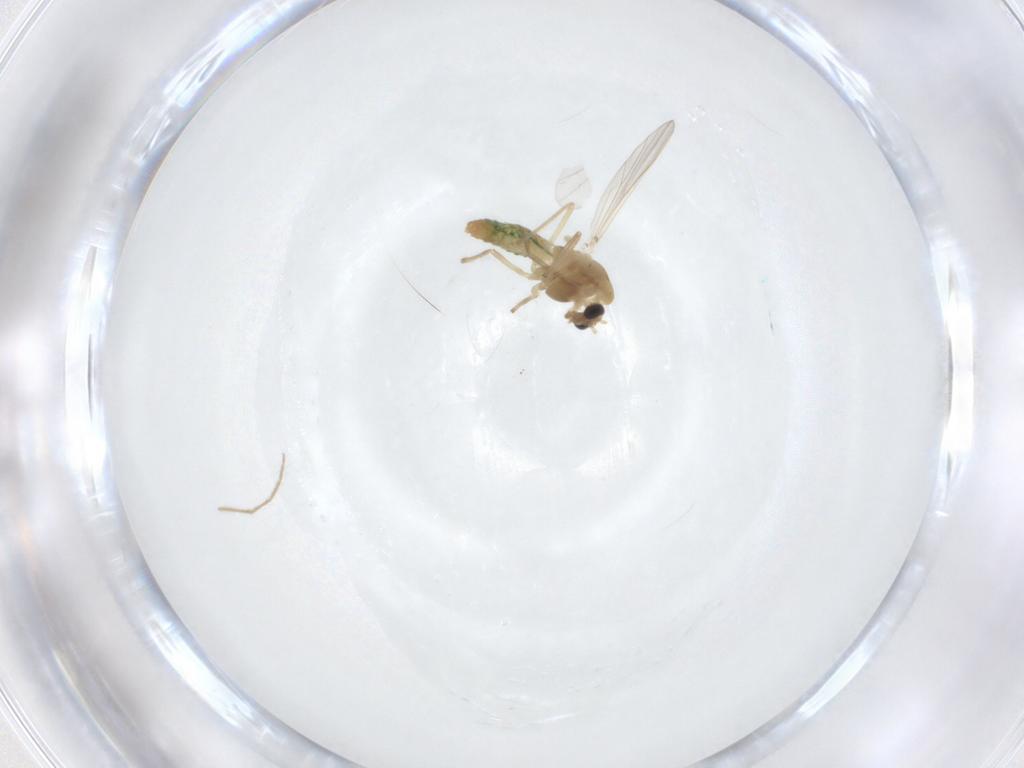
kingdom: Animalia
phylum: Arthropoda
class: Insecta
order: Diptera
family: Chironomidae
